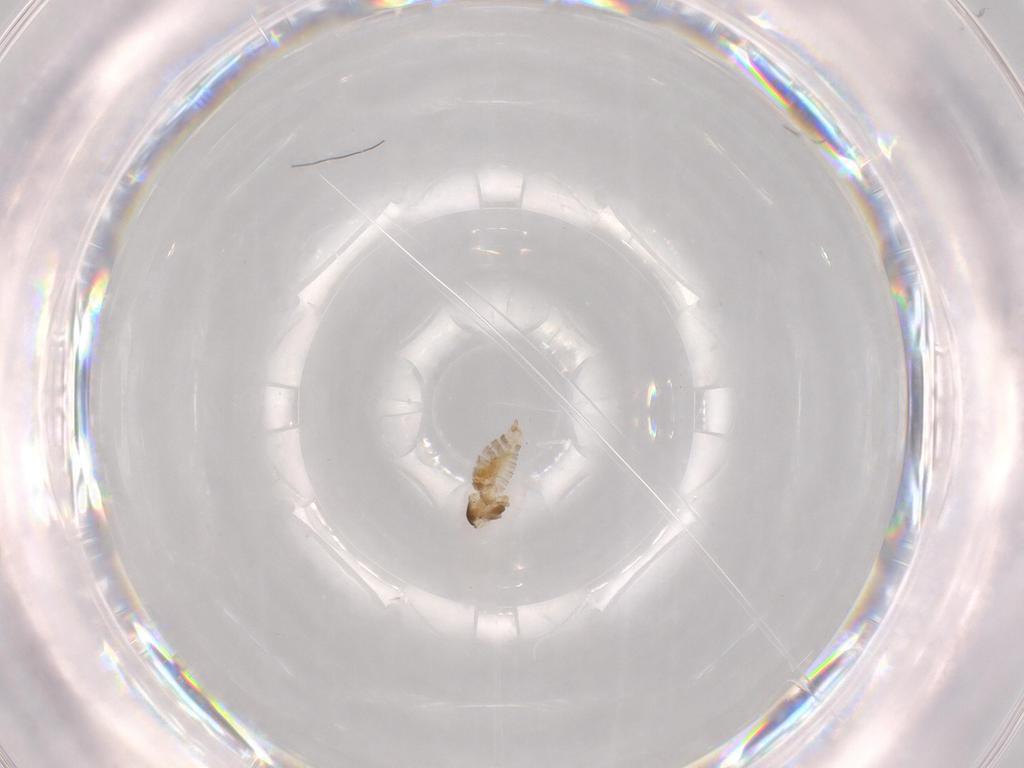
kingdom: Animalia
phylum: Arthropoda
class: Insecta
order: Diptera
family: Cecidomyiidae
